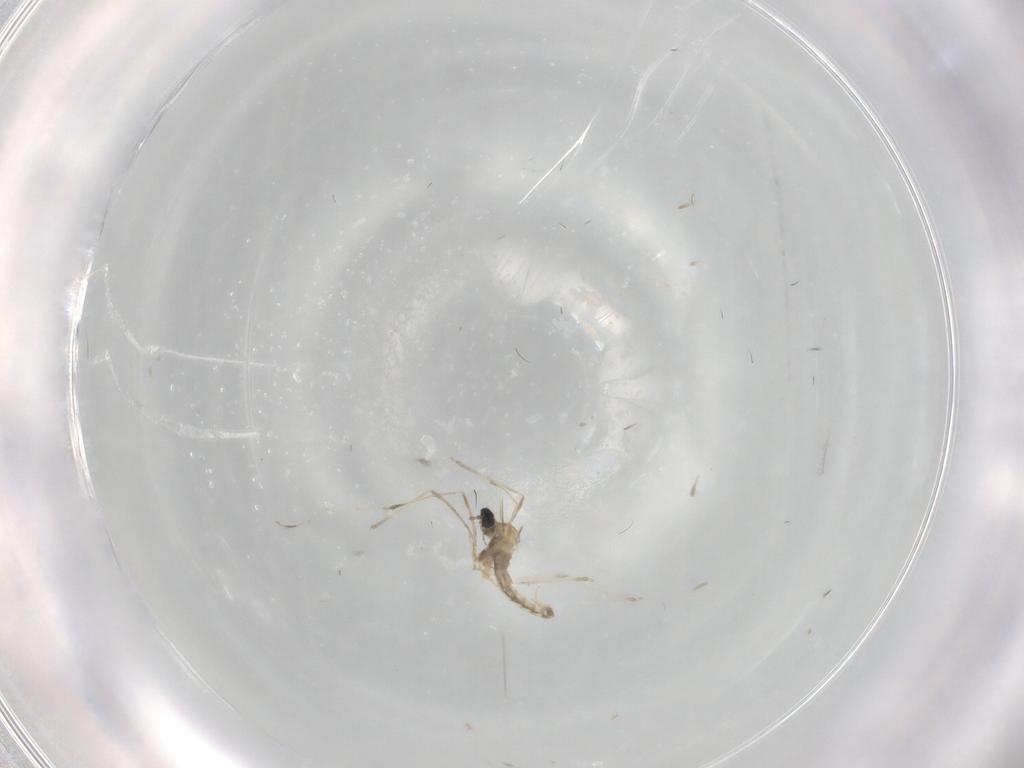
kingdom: Animalia
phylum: Arthropoda
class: Insecta
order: Diptera
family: Cecidomyiidae
